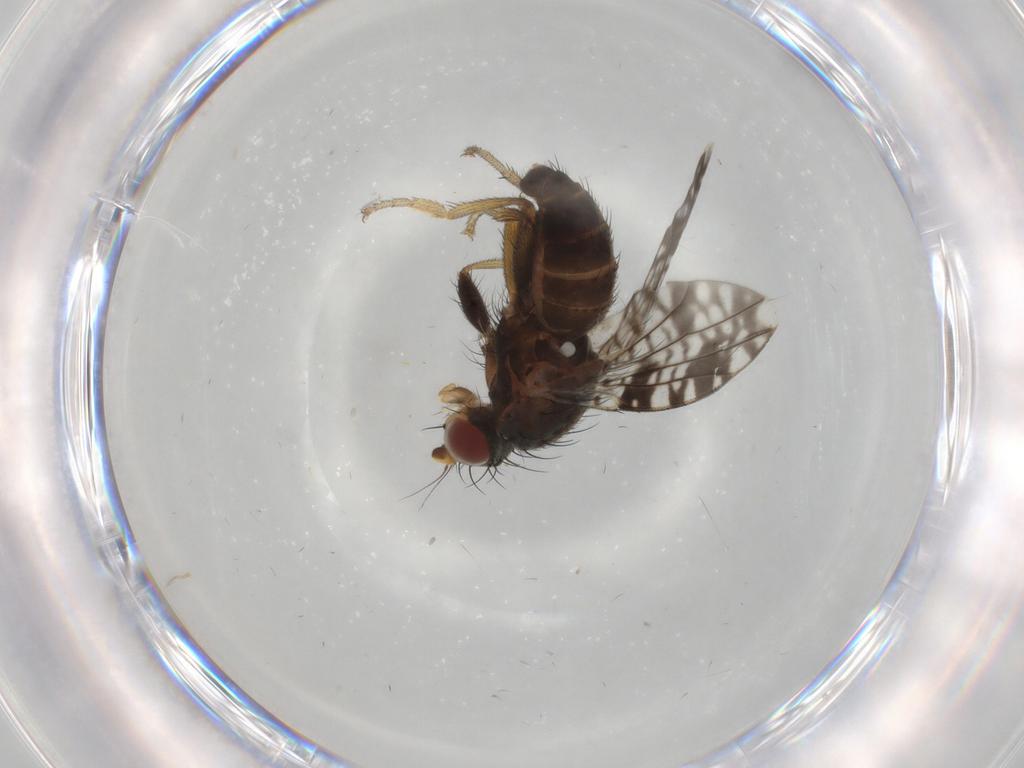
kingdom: Animalia
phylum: Arthropoda
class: Insecta
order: Diptera
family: Tephritidae
